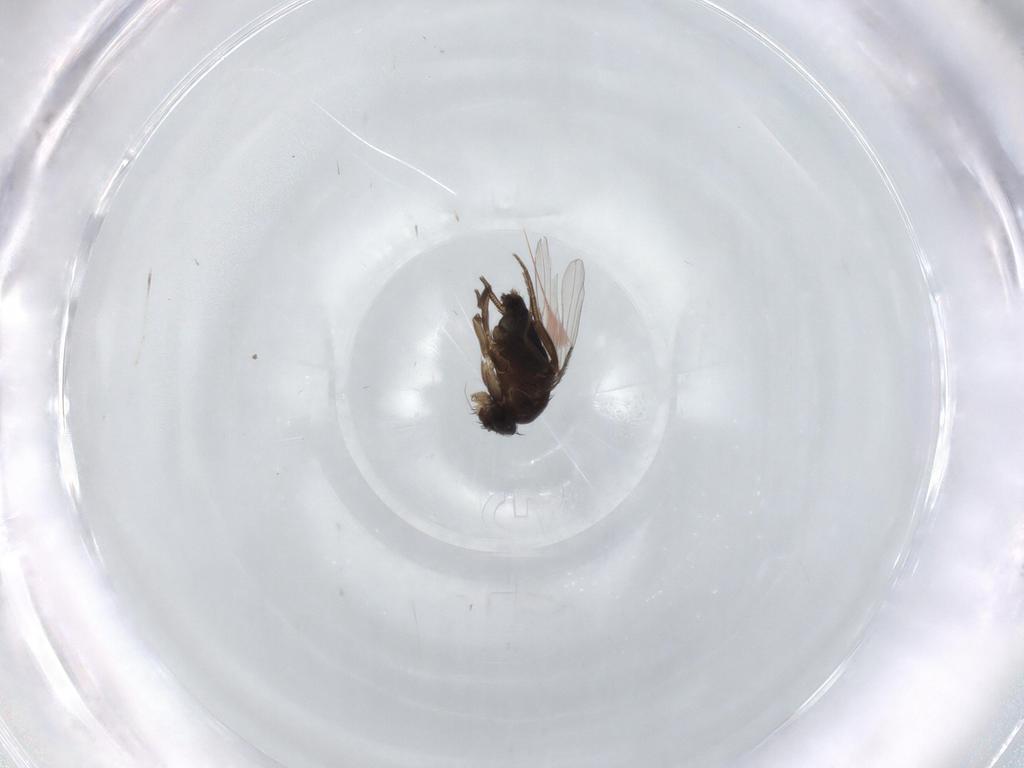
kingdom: Animalia
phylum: Arthropoda
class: Insecta
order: Diptera
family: Phoridae
